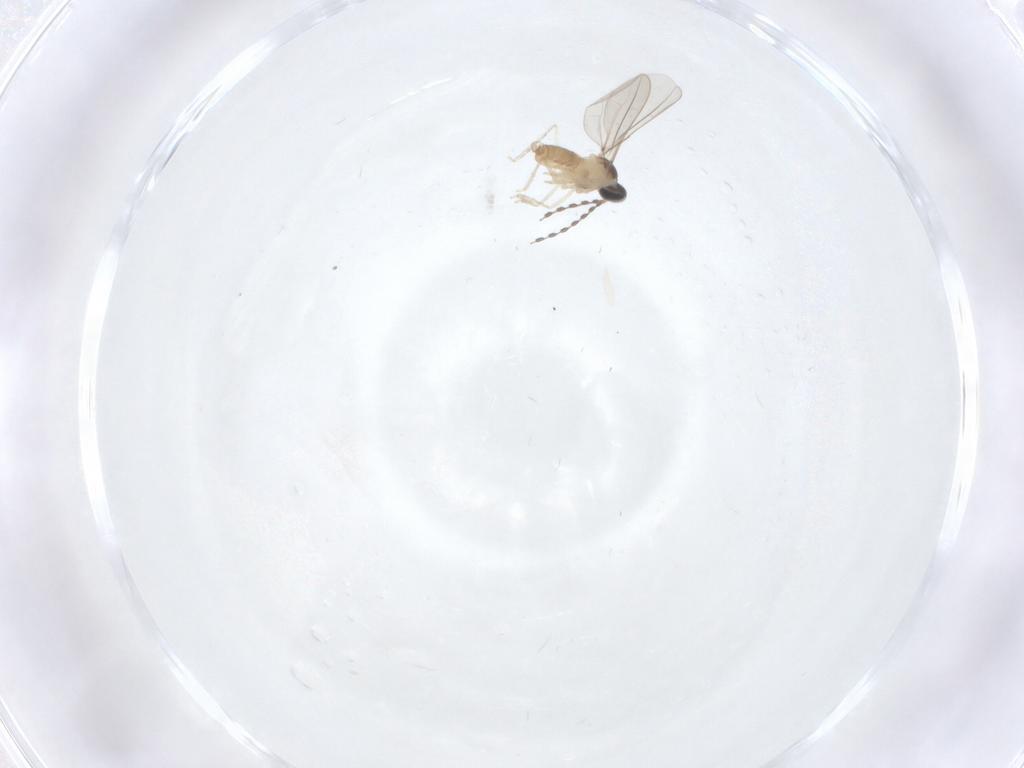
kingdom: Animalia
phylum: Arthropoda
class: Insecta
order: Diptera
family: Cecidomyiidae
